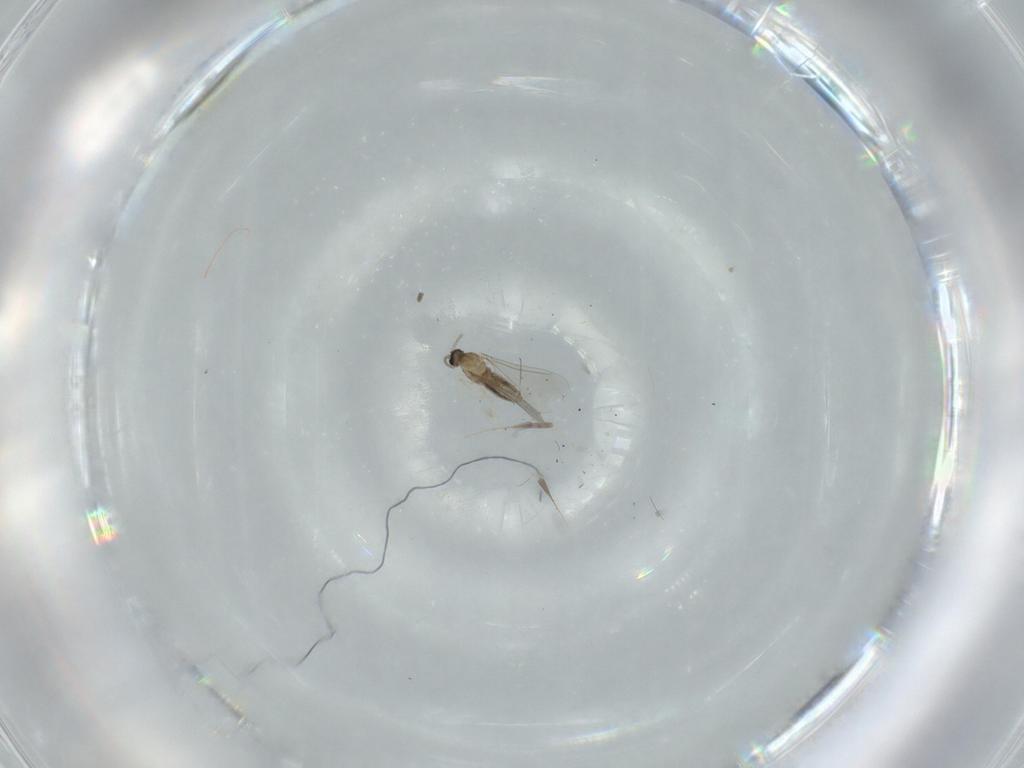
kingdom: Animalia
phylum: Arthropoda
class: Insecta
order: Diptera
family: Cecidomyiidae
